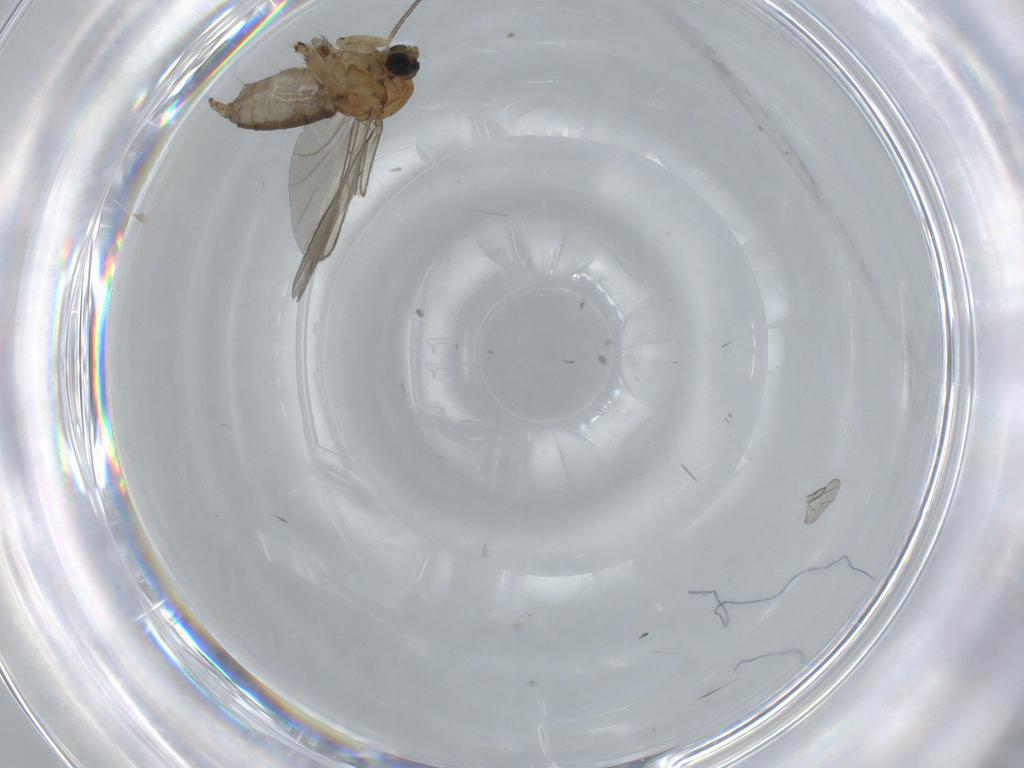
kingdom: Animalia
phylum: Arthropoda
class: Insecta
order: Diptera
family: Sciaridae
